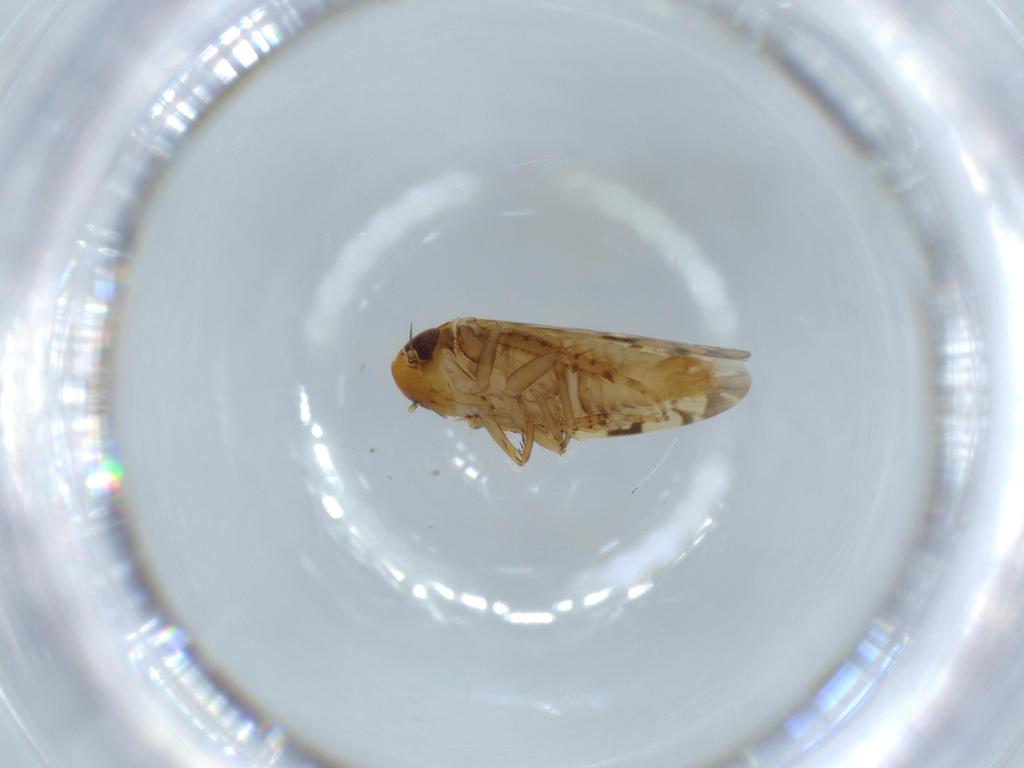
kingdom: Animalia
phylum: Arthropoda
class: Insecta
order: Hemiptera
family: Cicadellidae
